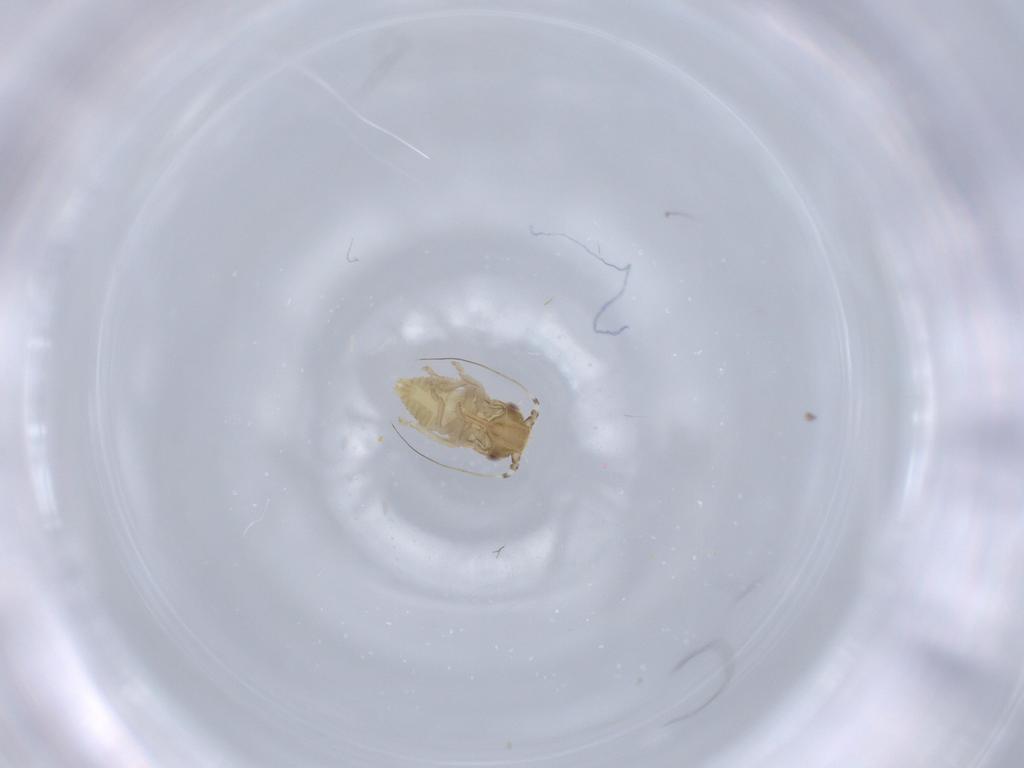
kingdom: Animalia
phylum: Arthropoda
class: Insecta
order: Hemiptera
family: Cicadellidae
